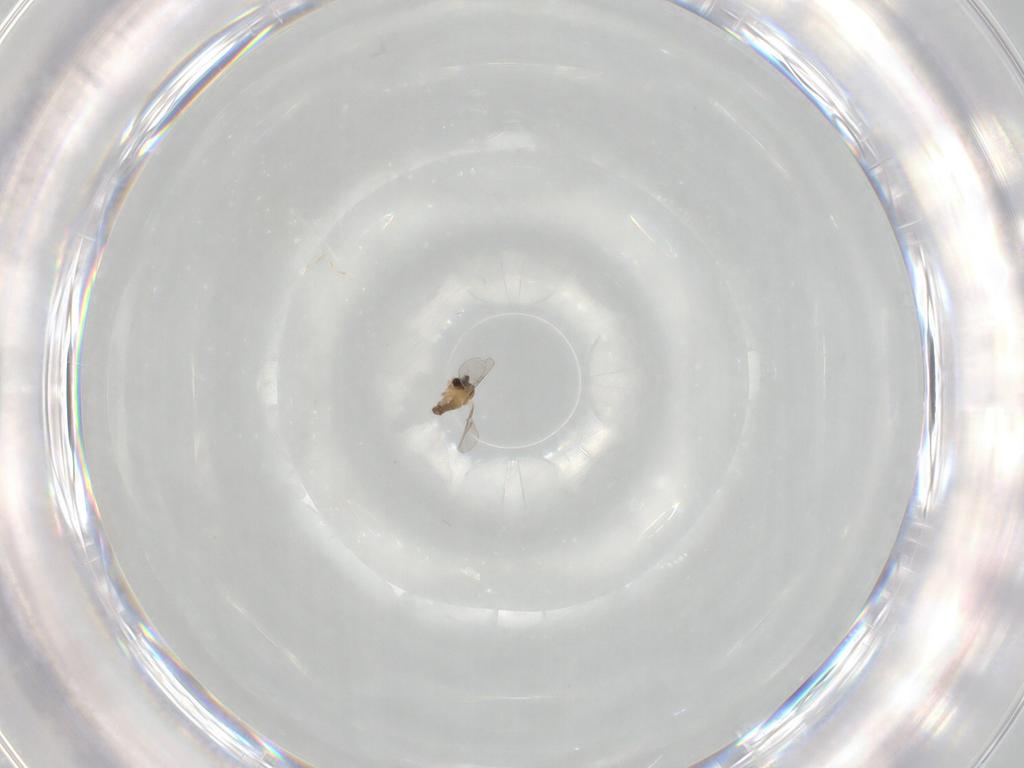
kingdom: Animalia
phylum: Arthropoda
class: Insecta
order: Diptera
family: Cecidomyiidae
